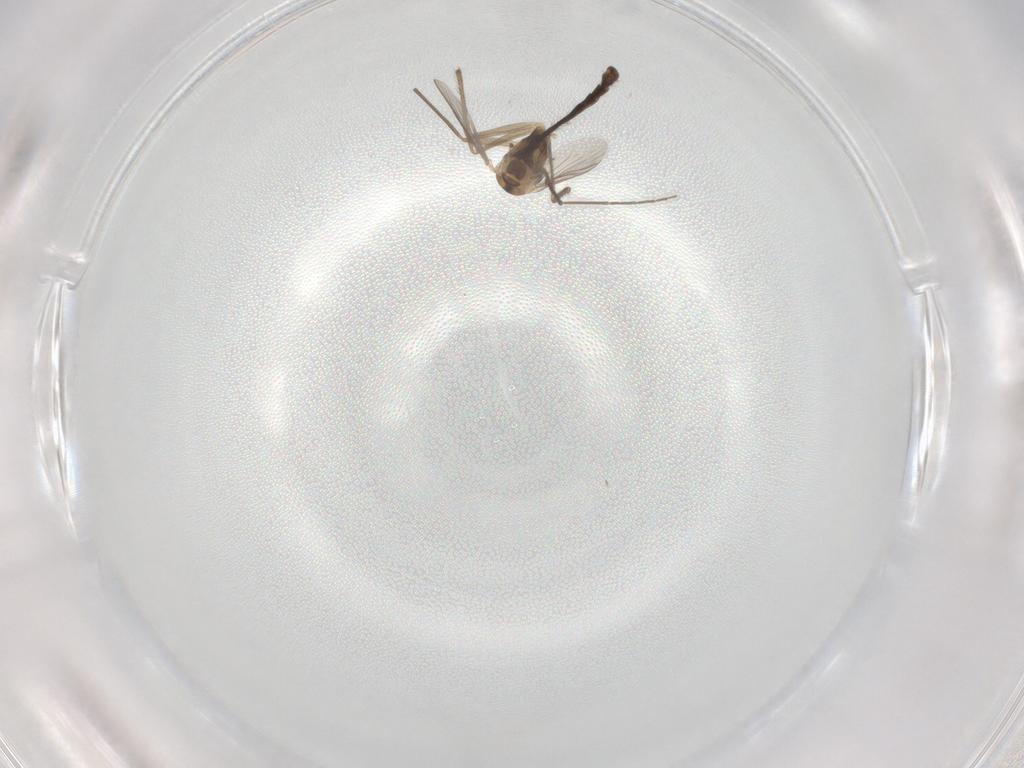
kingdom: Animalia
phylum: Arthropoda
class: Insecta
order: Diptera
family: Chironomidae
